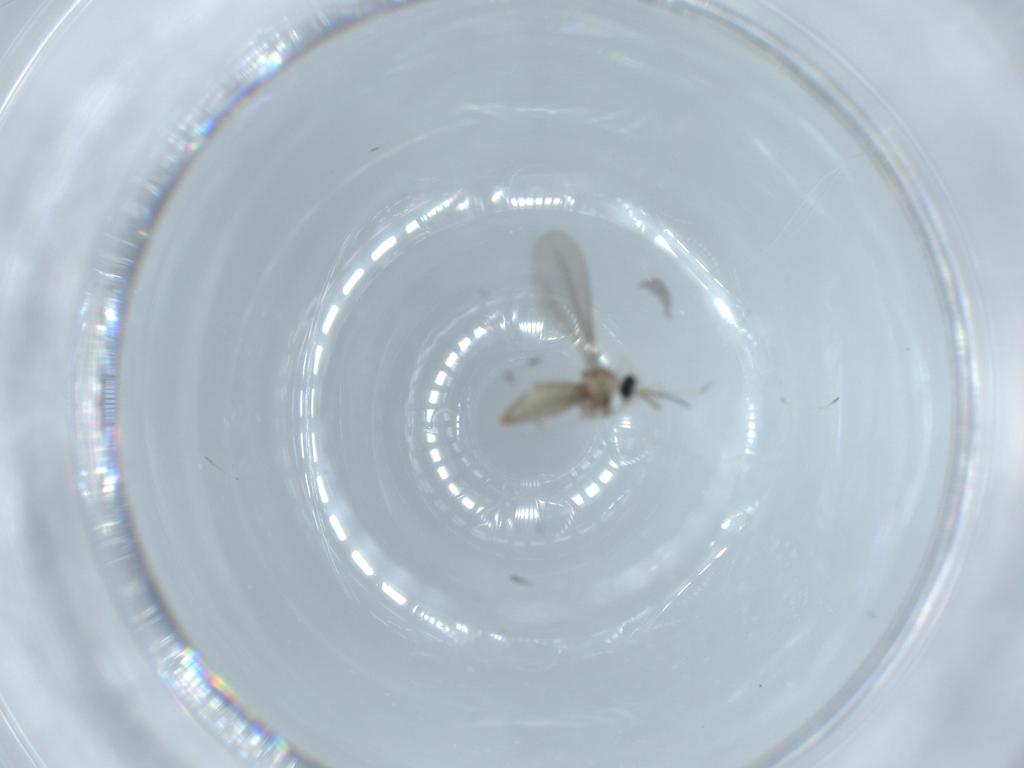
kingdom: Animalia
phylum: Arthropoda
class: Insecta
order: Diptera
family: Cecidomyiidae
